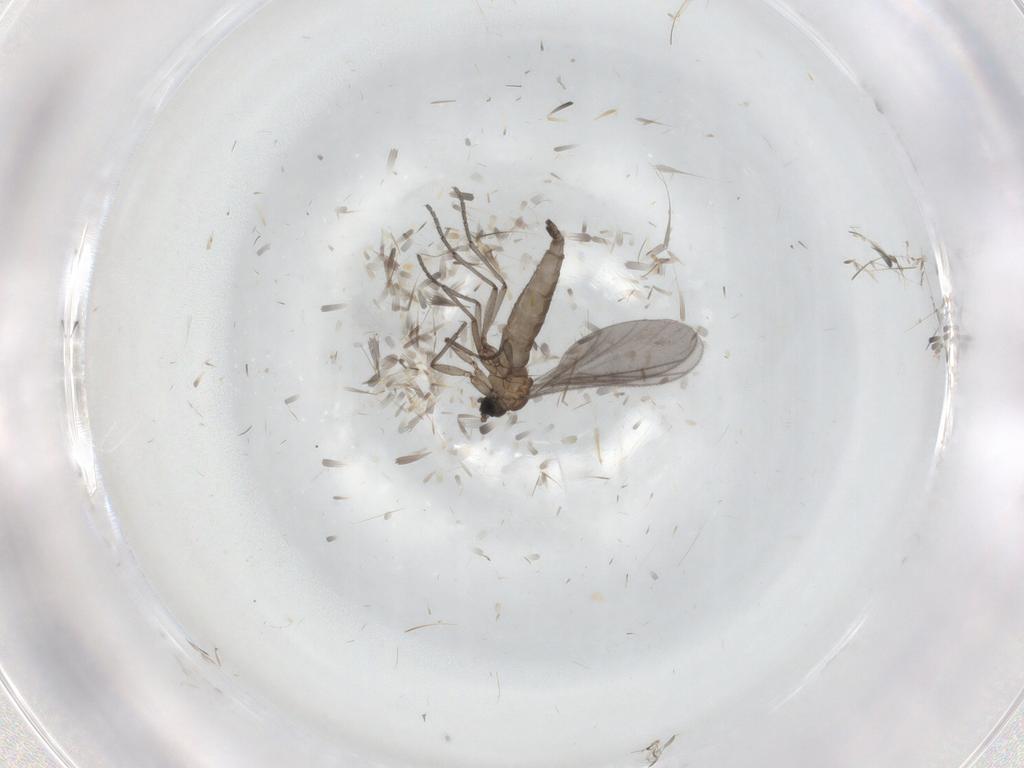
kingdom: Animalia
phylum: Arthropoda
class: Insecta
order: Diptera
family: Sciaridae
